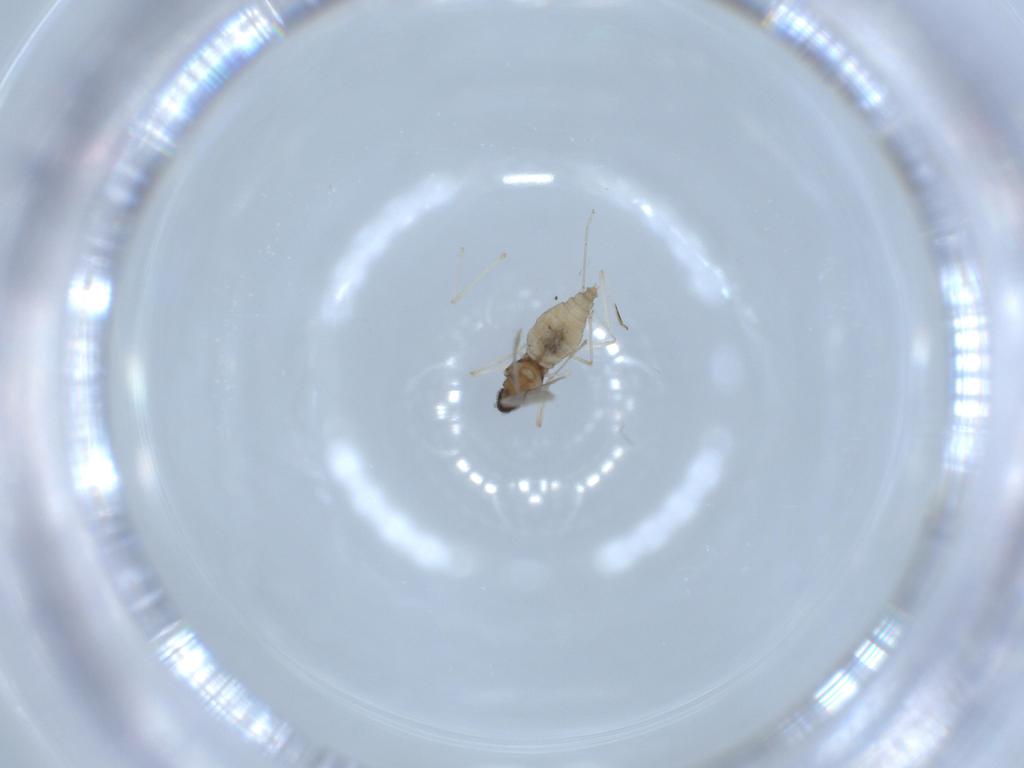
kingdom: Animalia
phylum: Arthropoda
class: Insecta
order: Diptera
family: Cecidomyiidae
